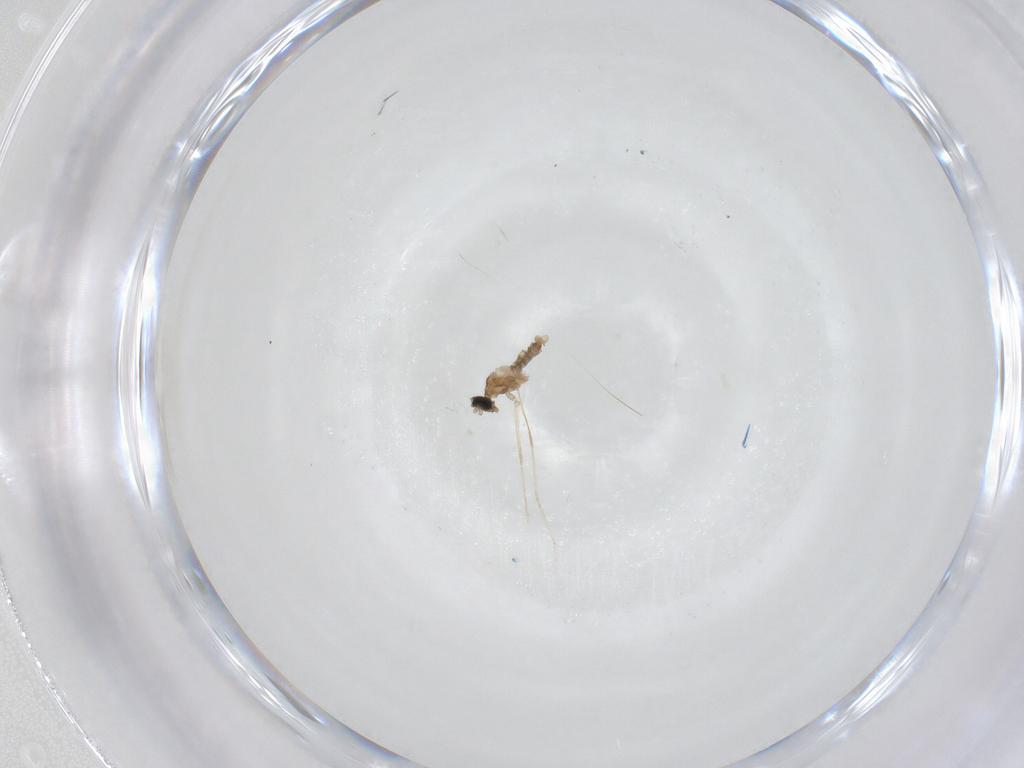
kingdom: Animalia
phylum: Arthropoda
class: Insecta
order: Diptera
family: Cecidomyiidae
